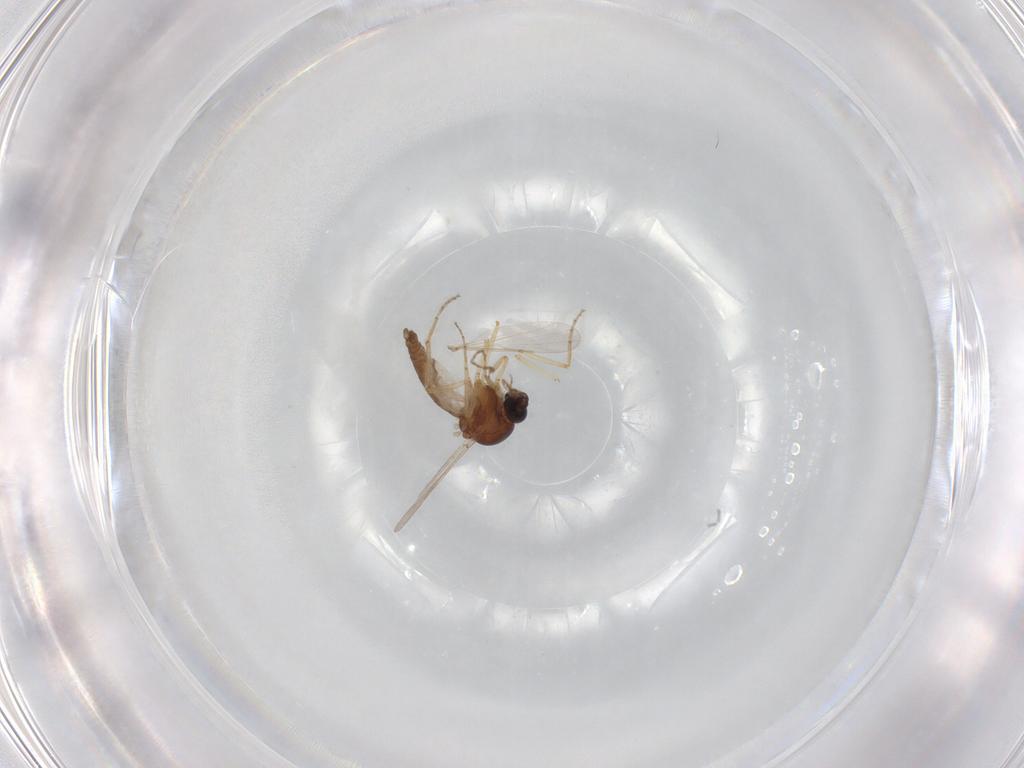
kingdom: Animalia
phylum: Arthropoda
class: Insecta
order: Diptera
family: Ceratopogonidae
